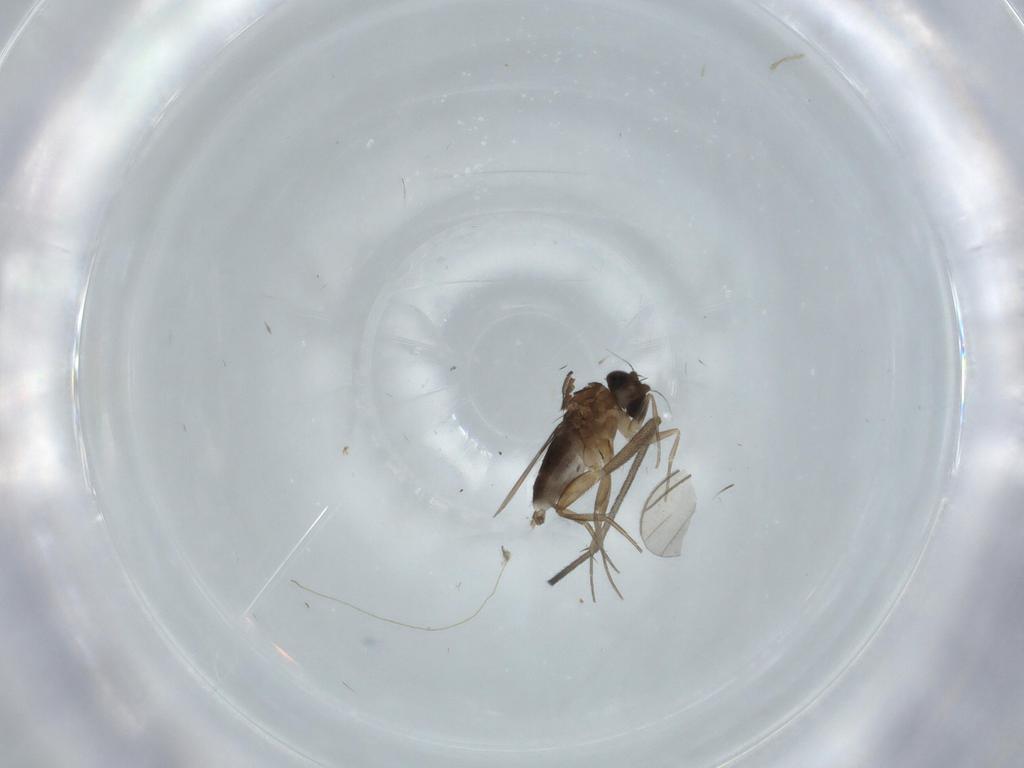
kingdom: Animalia
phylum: Arthropoda
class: Insecta
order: Diptera
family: Phoridae
